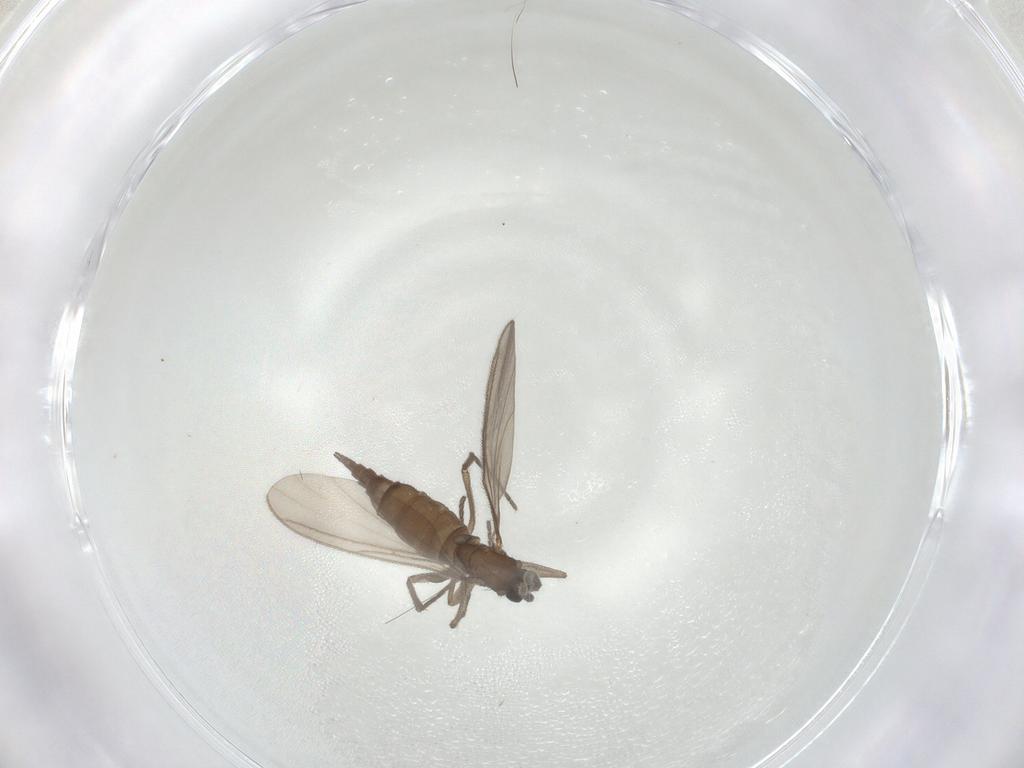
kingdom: Animalia
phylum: Arthropoda
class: Insecta
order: Diptera
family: Sciaridae
